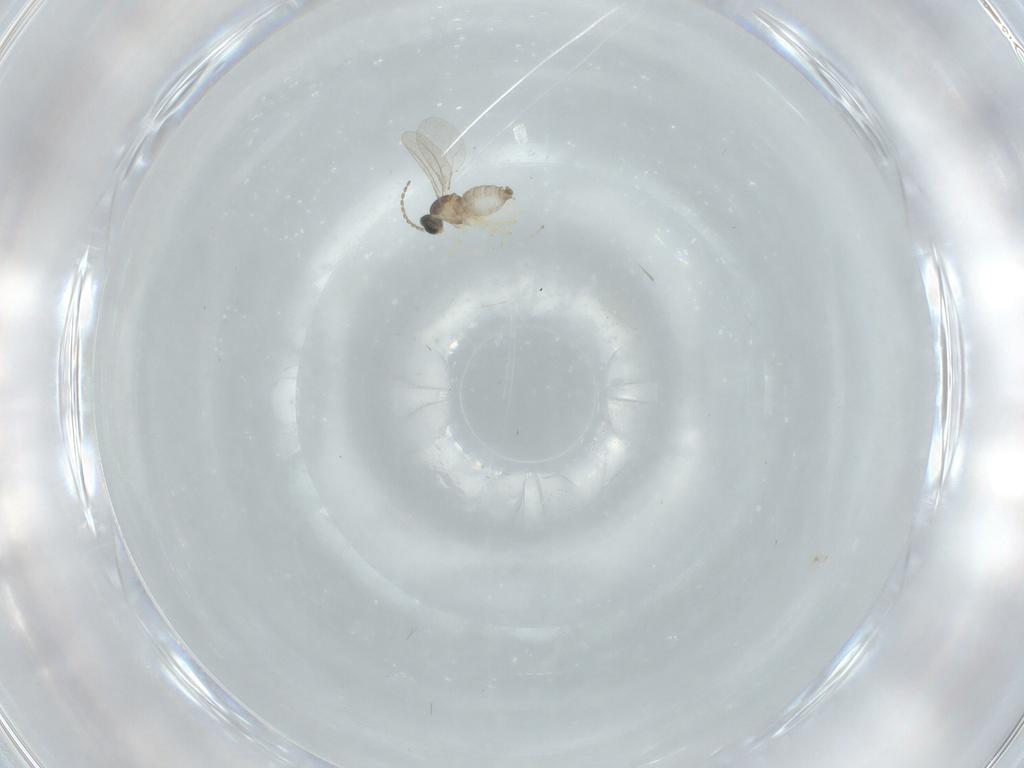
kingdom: Animalia
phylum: Arthropoda
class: Insecta
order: Diptera
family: Cecidomyiidae
